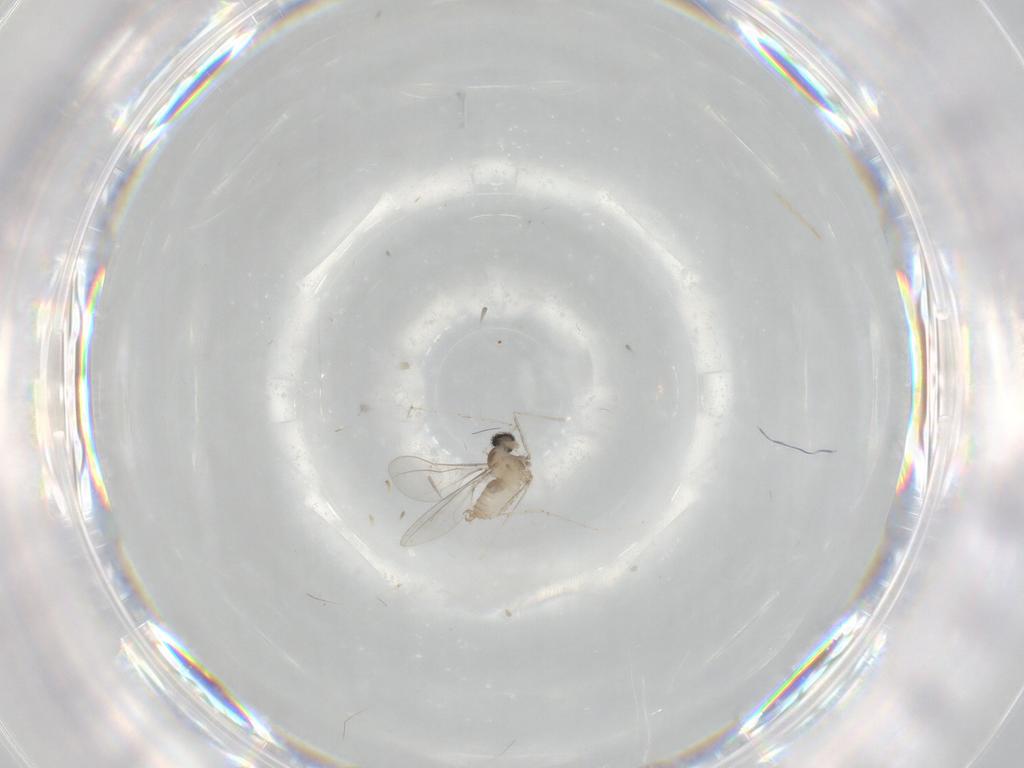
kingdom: Animalia
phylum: Arthropoda
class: Insecta
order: Diptera
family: Cecidomyiidae
